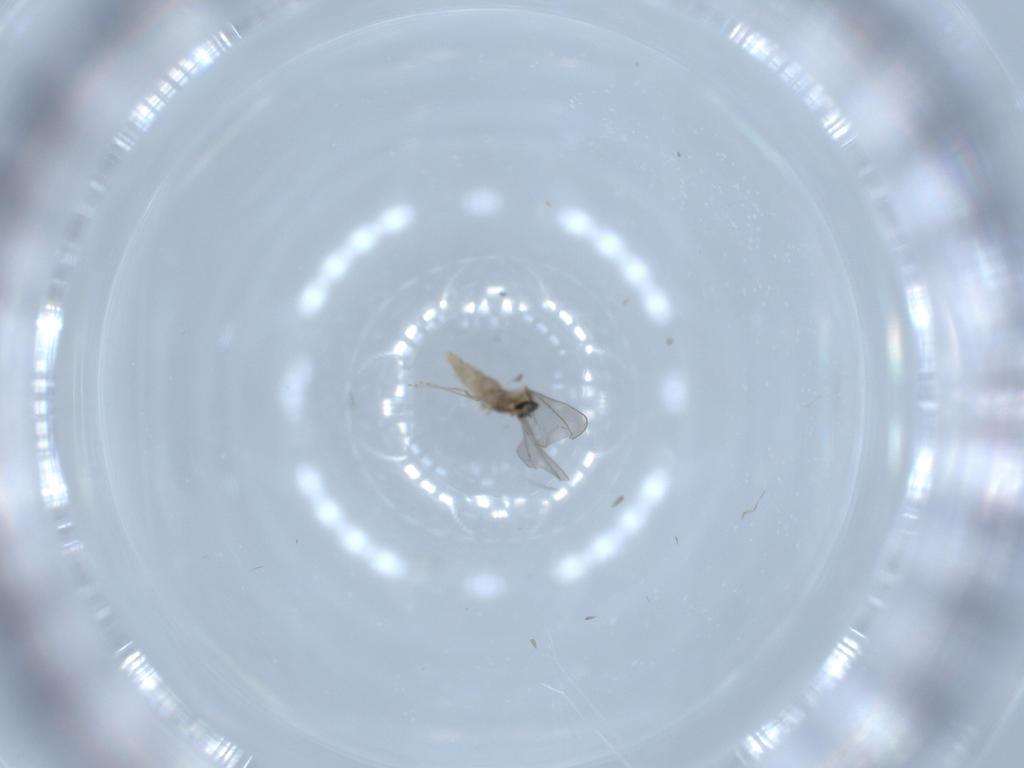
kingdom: Animalia
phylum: Arthropoda
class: Insecta
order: Diptera
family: Cecidomyiidae
